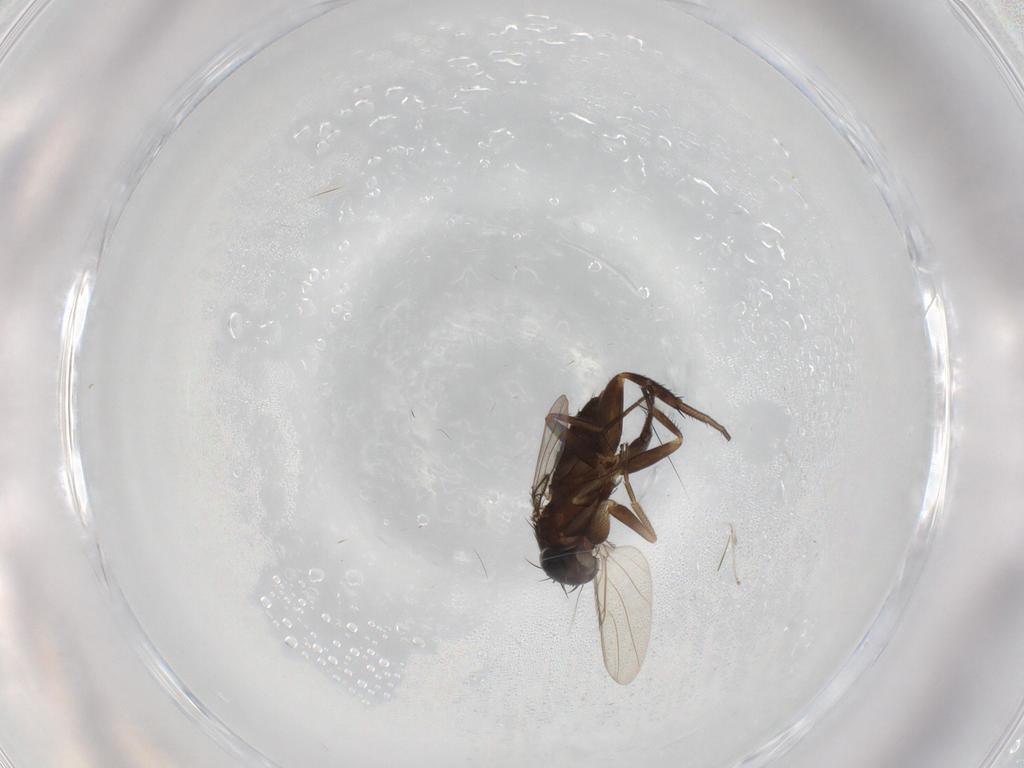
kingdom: Animalia
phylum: Arthropoda
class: Insecta
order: Diptera
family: Phoridae
